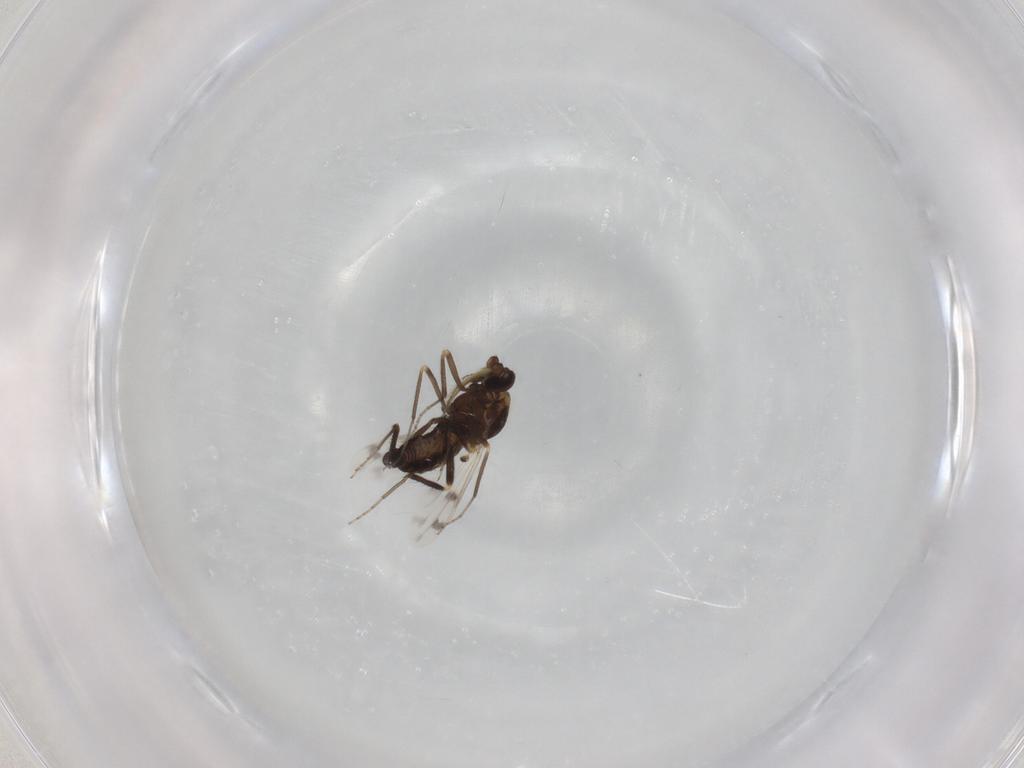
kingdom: Animalia
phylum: Arthropoda
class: Insecta
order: Diptera
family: Ceratopogonidae
